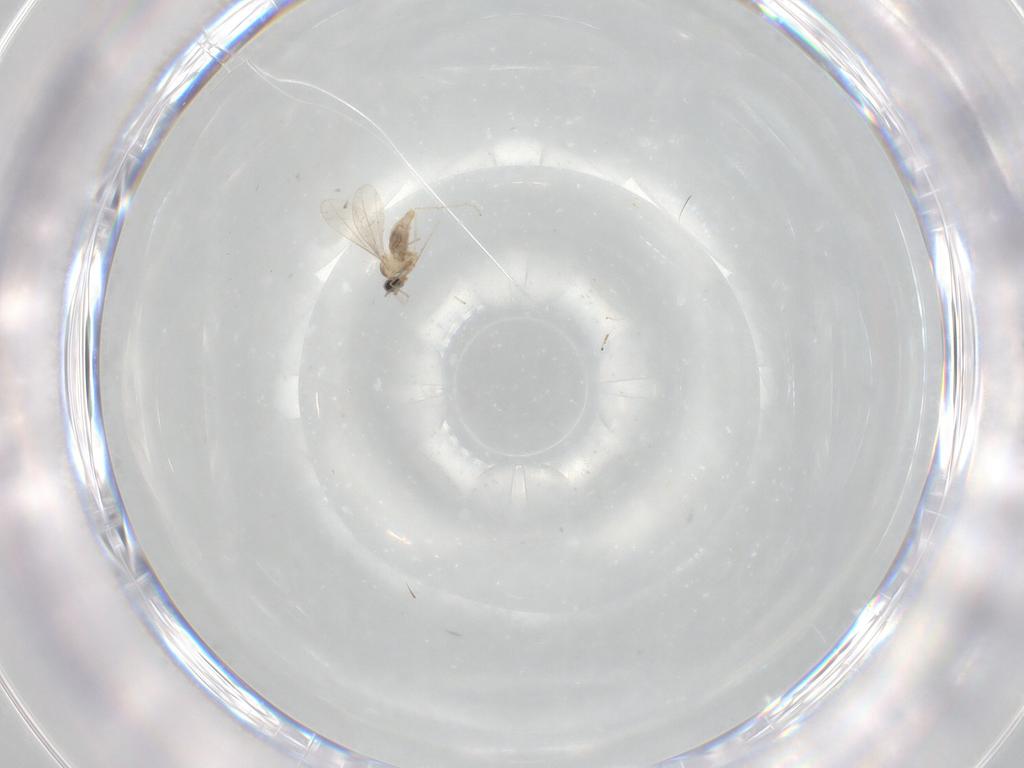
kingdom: Animalia
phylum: Arthropoda
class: Insecta
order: Diptera
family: Cecidomyiidae
